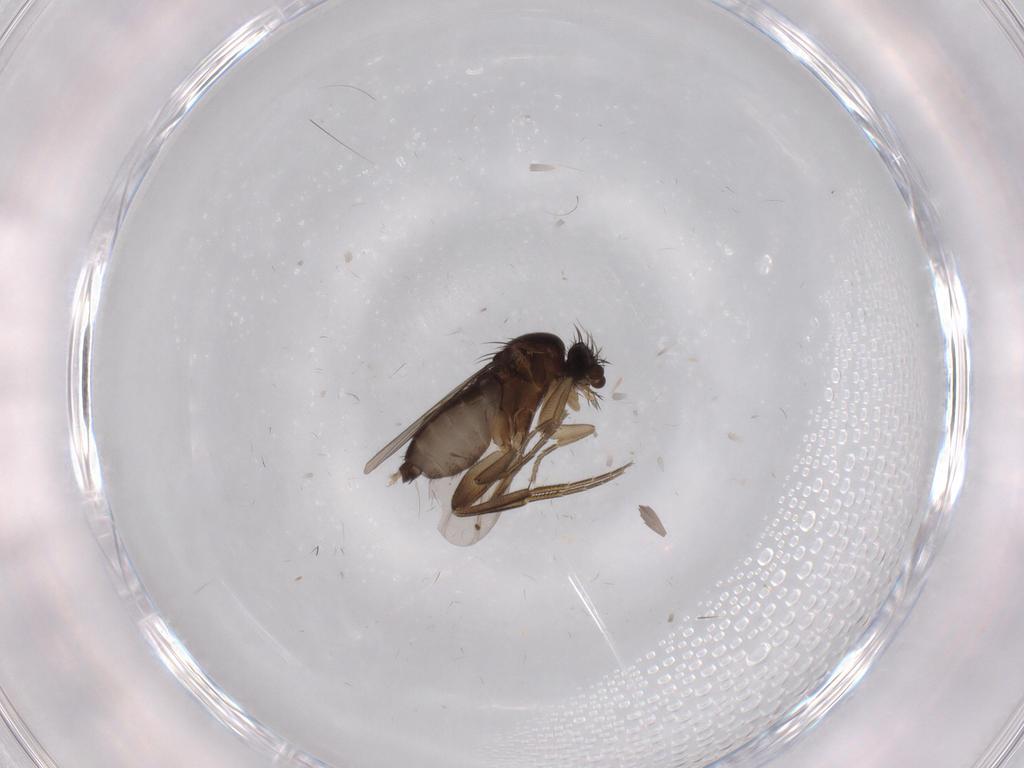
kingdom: Animalia
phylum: Arthropoda
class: Insecta
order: Diptera
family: Phoridae
